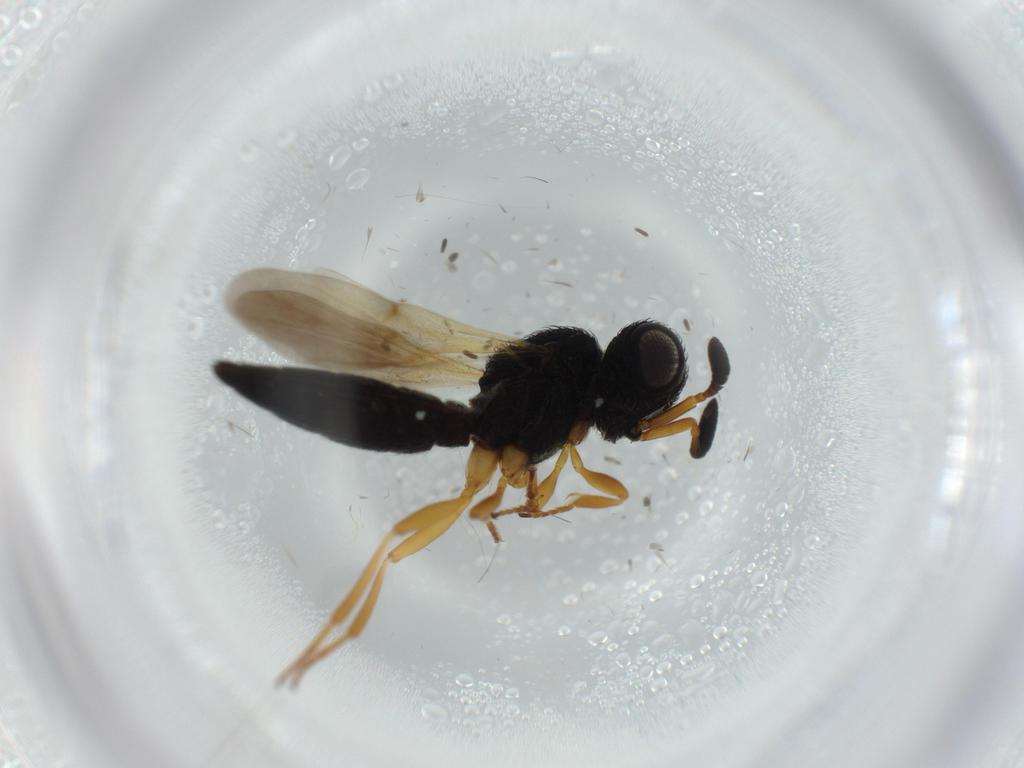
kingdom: Animalia
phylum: Arthropoda
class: Insecta
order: Hymenoptera
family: Scelionidae
